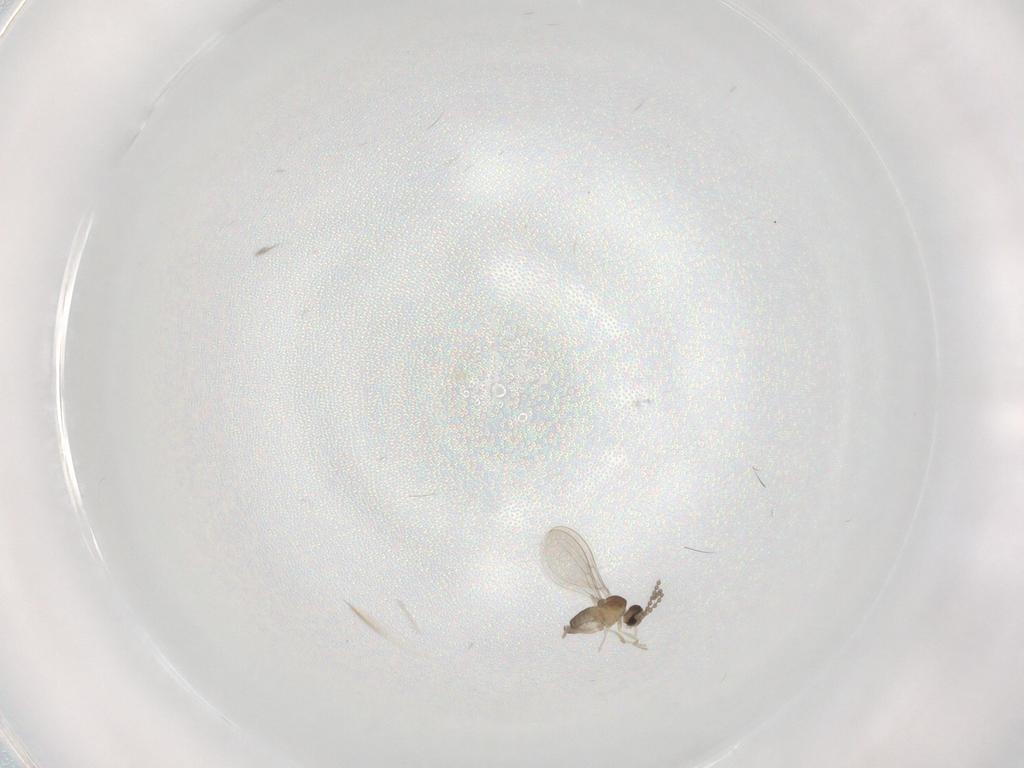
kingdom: Animalia
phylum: Arthropoda
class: Insecta
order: Diptera
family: Cecidomyiidae
